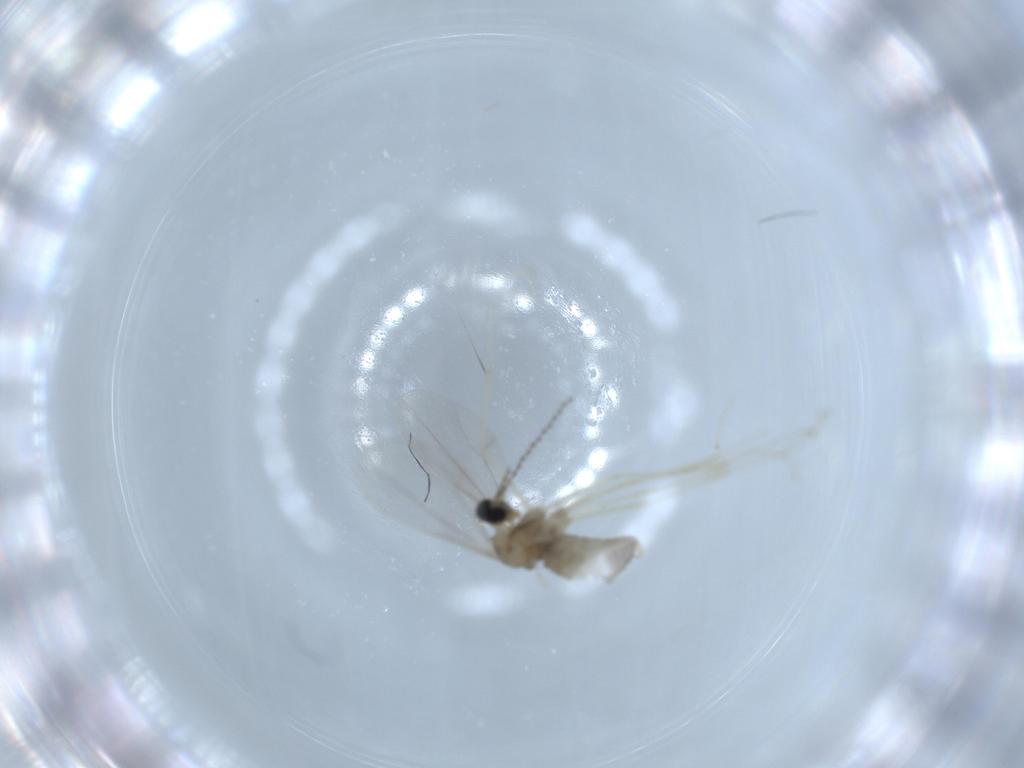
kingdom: Animalia
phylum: Arthropoda
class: Insecta
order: Diptera
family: Cecidomyiidae
